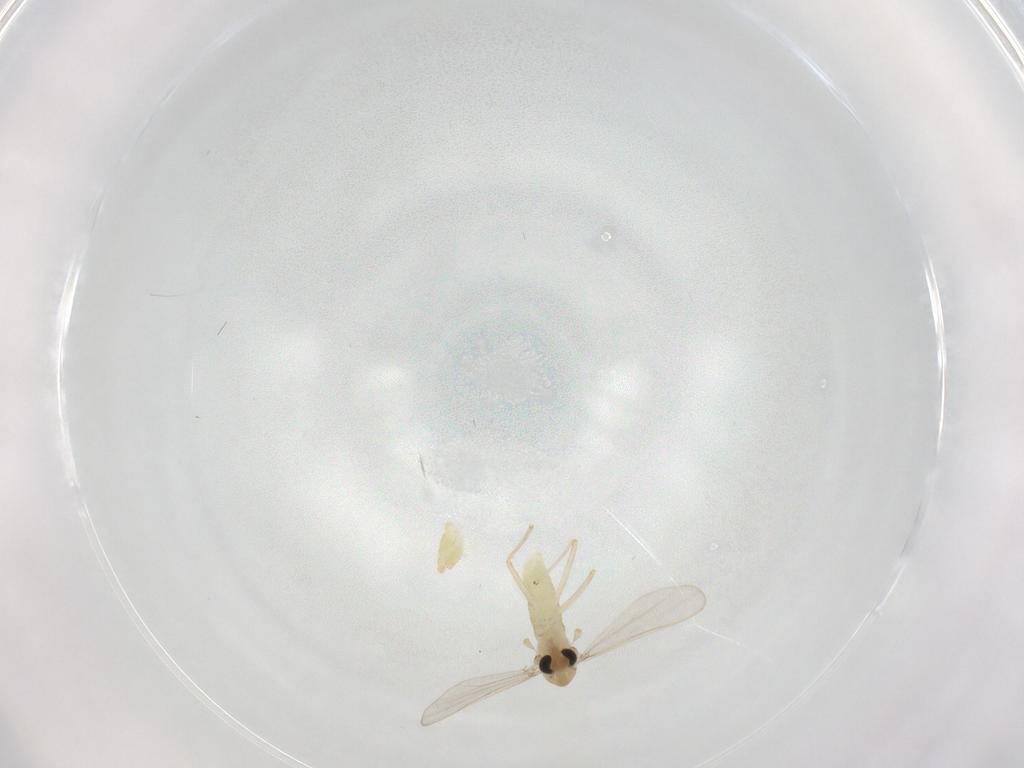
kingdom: Animalia
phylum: Arthropoda
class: Insecta
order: Diptera
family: Chironomidae
